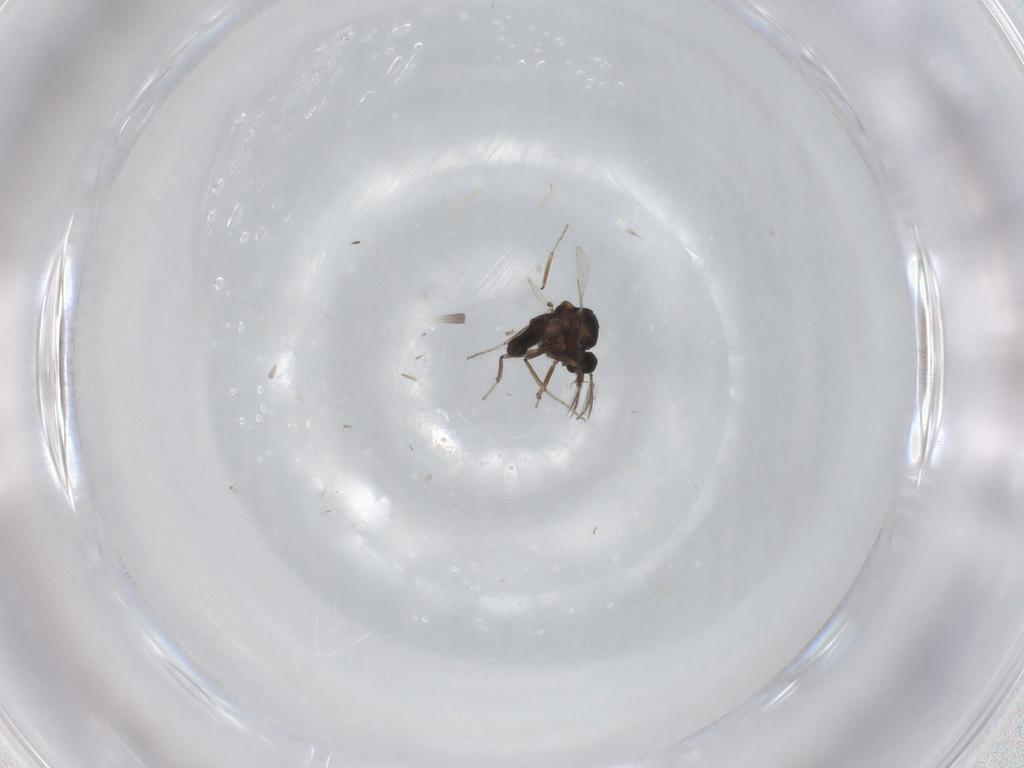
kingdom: Animalia
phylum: Arthropoda
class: Insecta
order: Diptera
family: Ceratopogonidae
